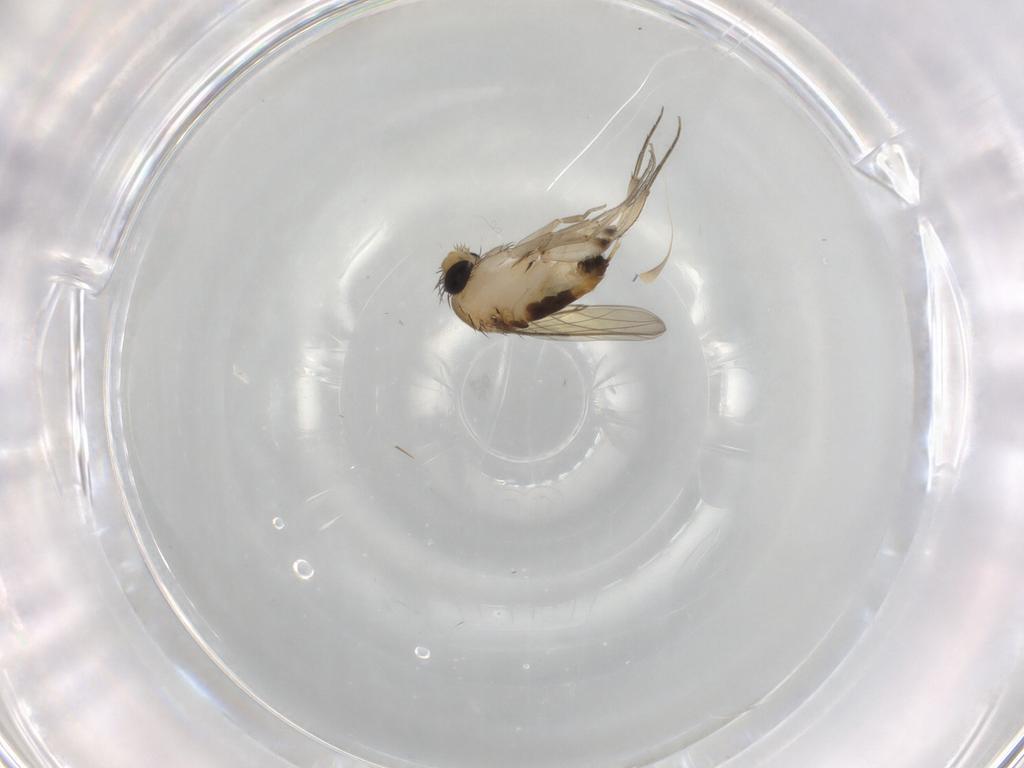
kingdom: Animalia
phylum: Arthropoda
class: Insecta
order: Diptera
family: Phoridae
